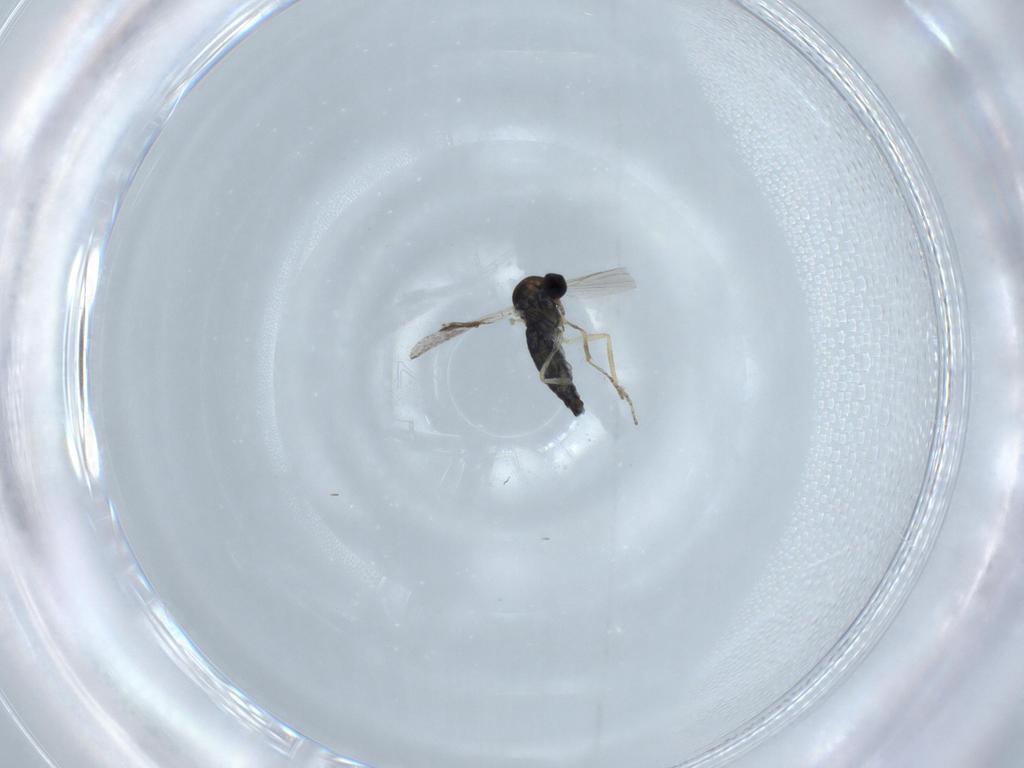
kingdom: Animalia
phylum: Arthropoda
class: Insecta
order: Diptera
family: Ceratopogonidae
